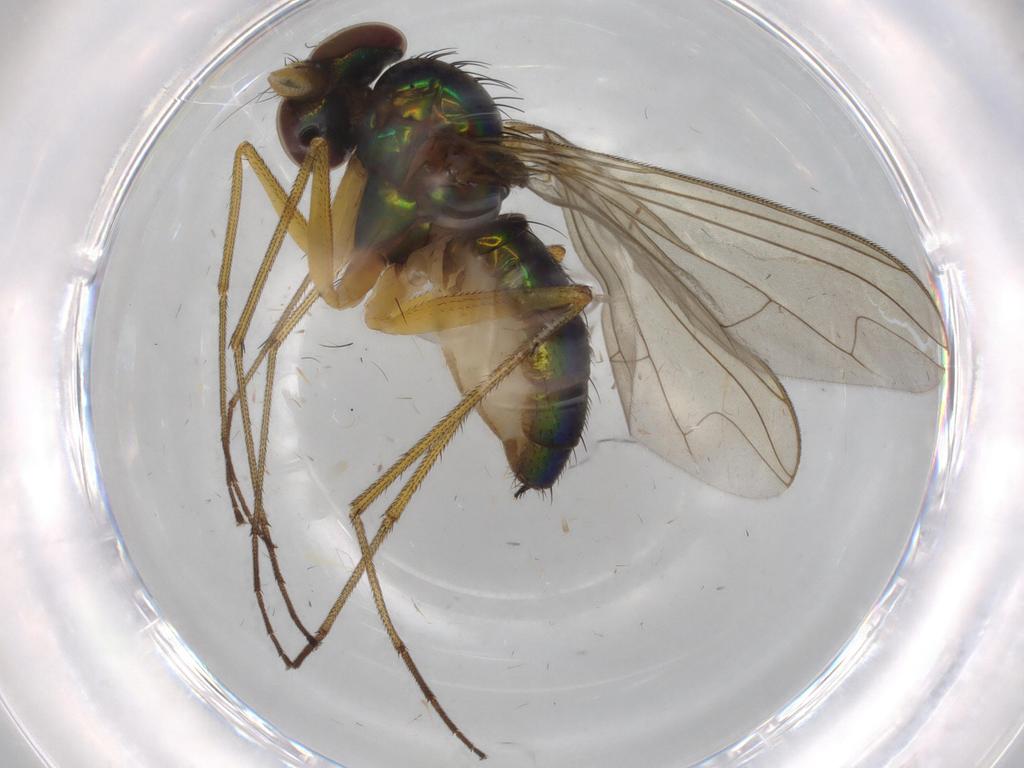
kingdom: Animalia
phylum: Arthropoda
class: Insecta
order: Diptera
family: Dolichopodidae
